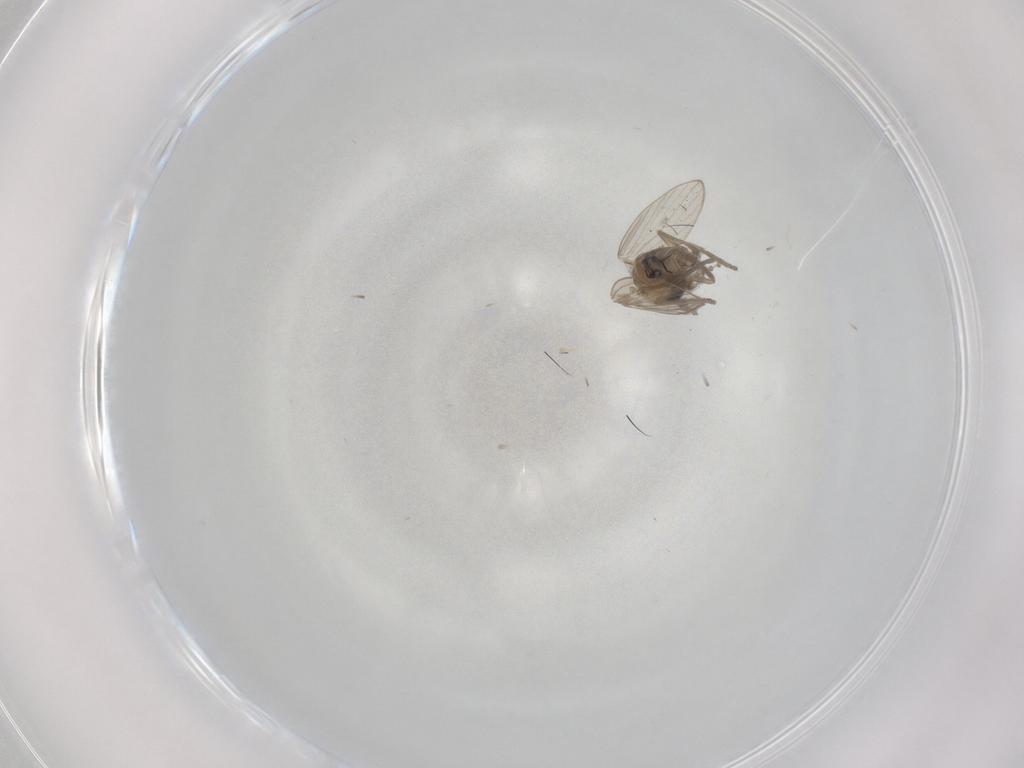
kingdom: Animalia
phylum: Arthropoda
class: Insecta
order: Diptera
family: Psychodidae
